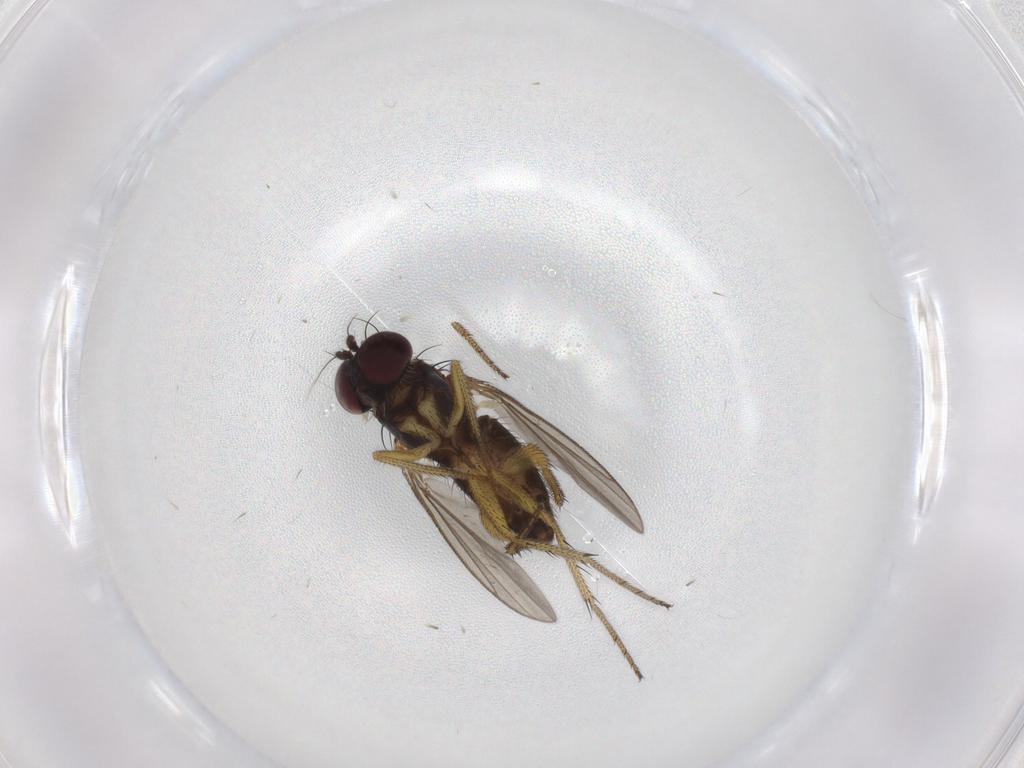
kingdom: Animalia
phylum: Arthropoda
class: Insecta
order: Diptera
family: Dolichopodidae
